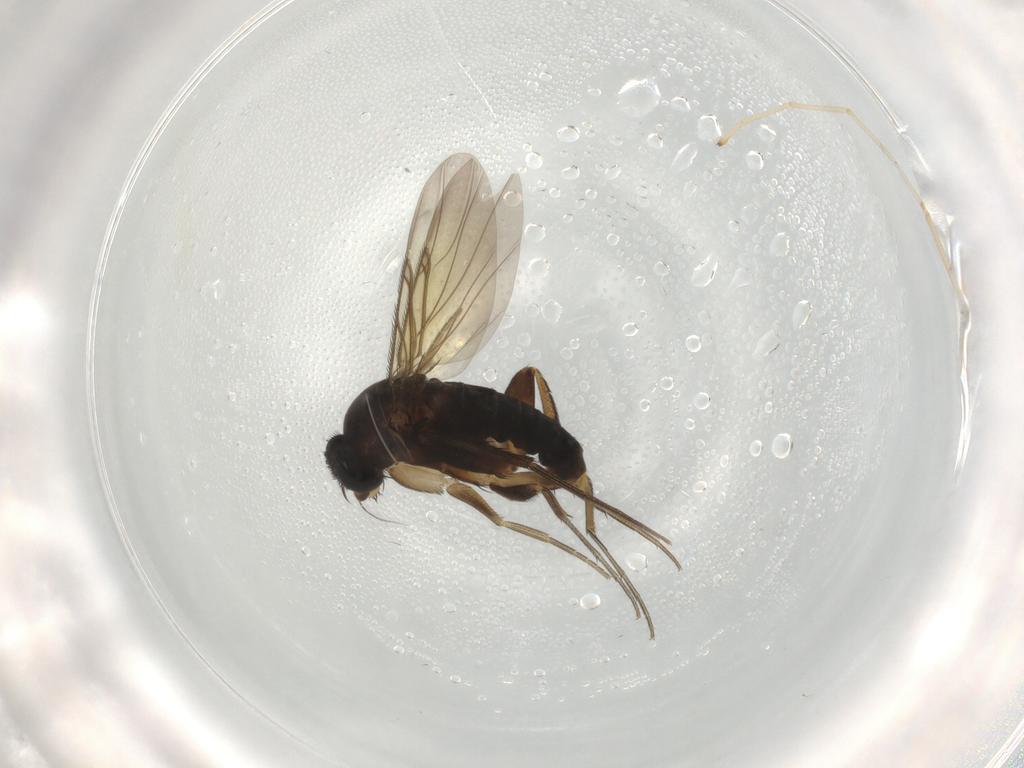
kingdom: Animalia
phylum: Arthropoda
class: Insecta
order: Diptera
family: Phoridae
